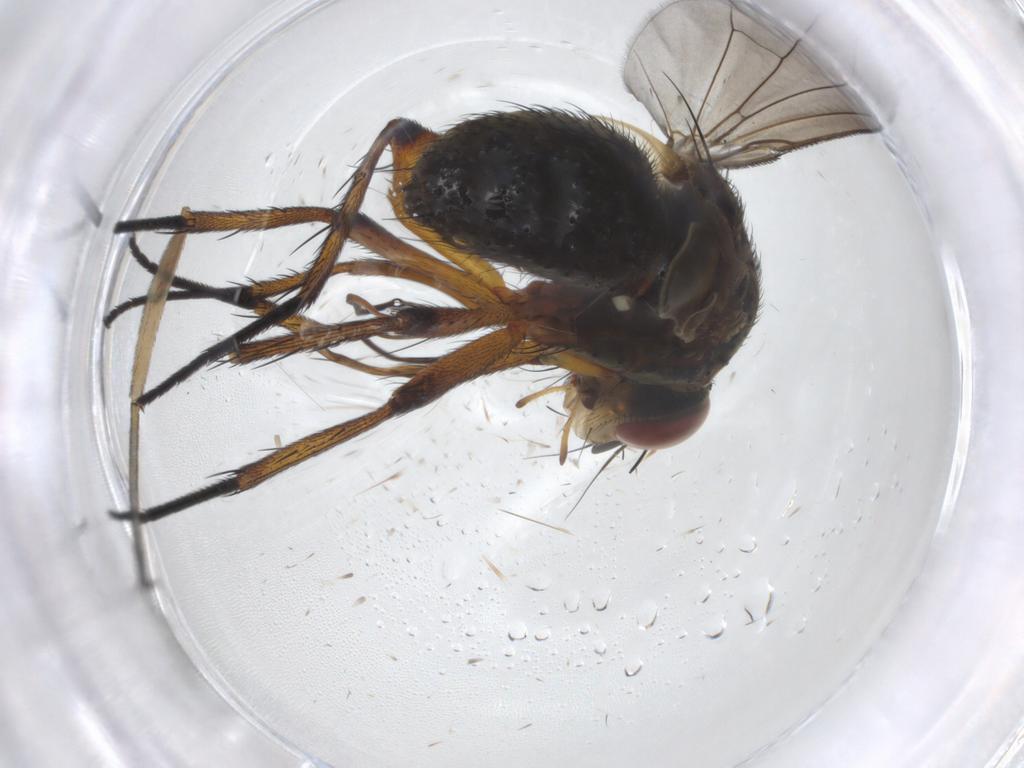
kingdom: Animalia
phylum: Arthropoda
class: Insecta
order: Diptera
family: Tachinidae
